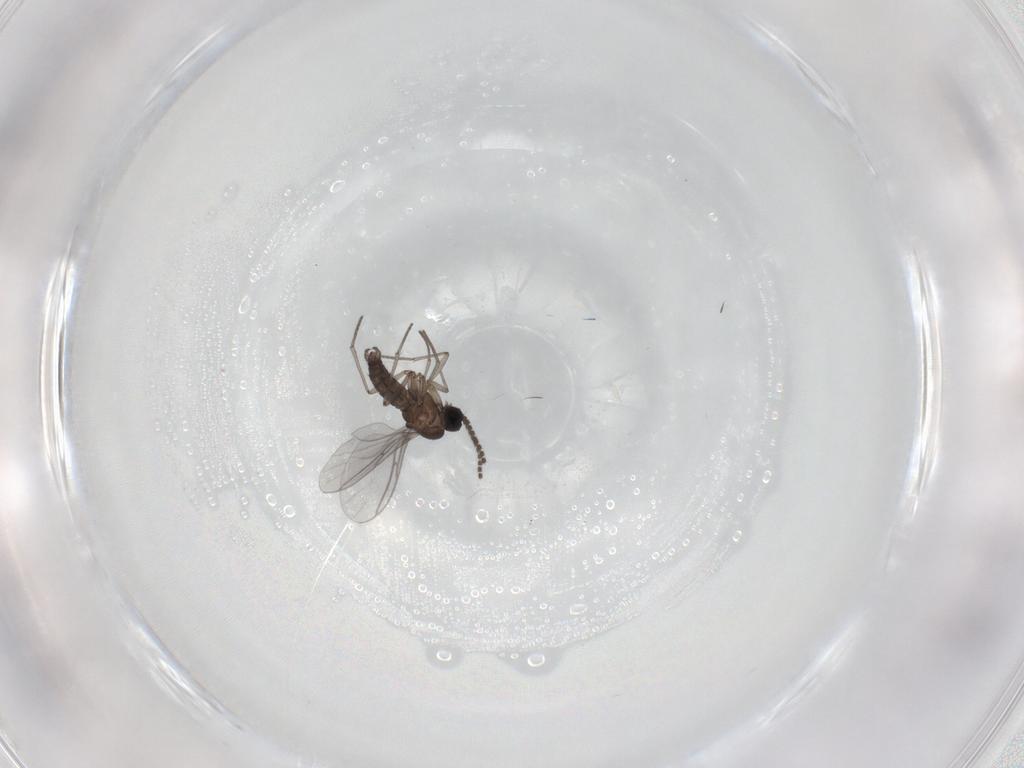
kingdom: Animalia
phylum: Arthropoda
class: Insecta
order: Diptera
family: Sciaridae
